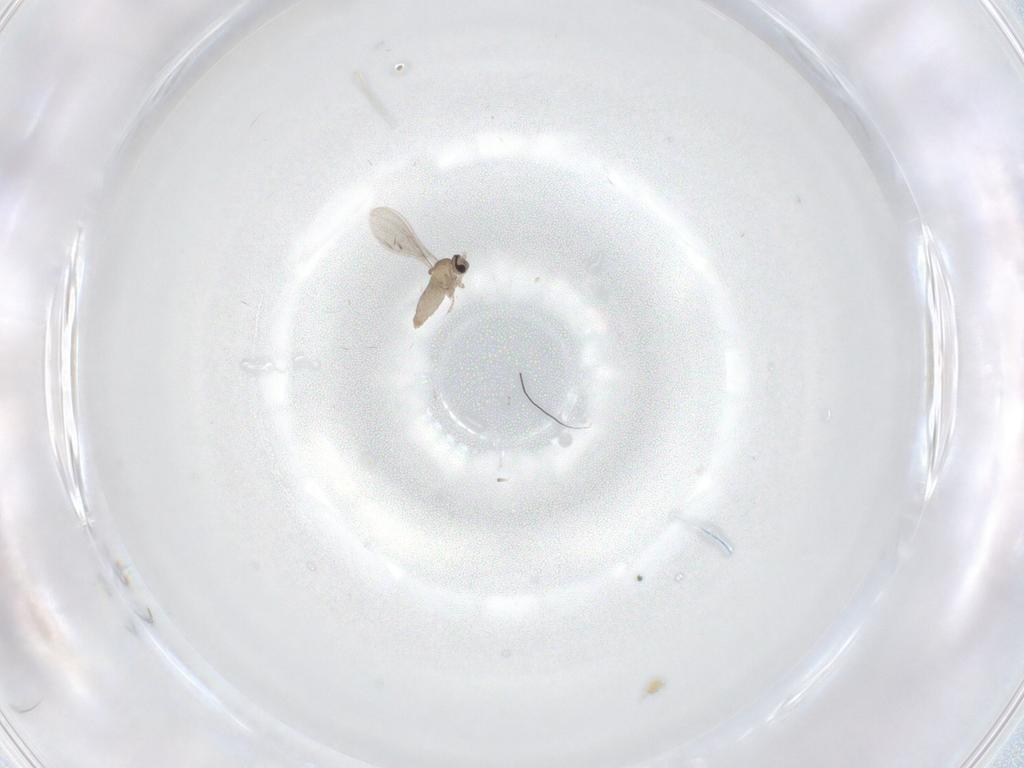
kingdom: Animalia
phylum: Arthropoda
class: Insecta
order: Diptera
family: Cecidomyiidae
